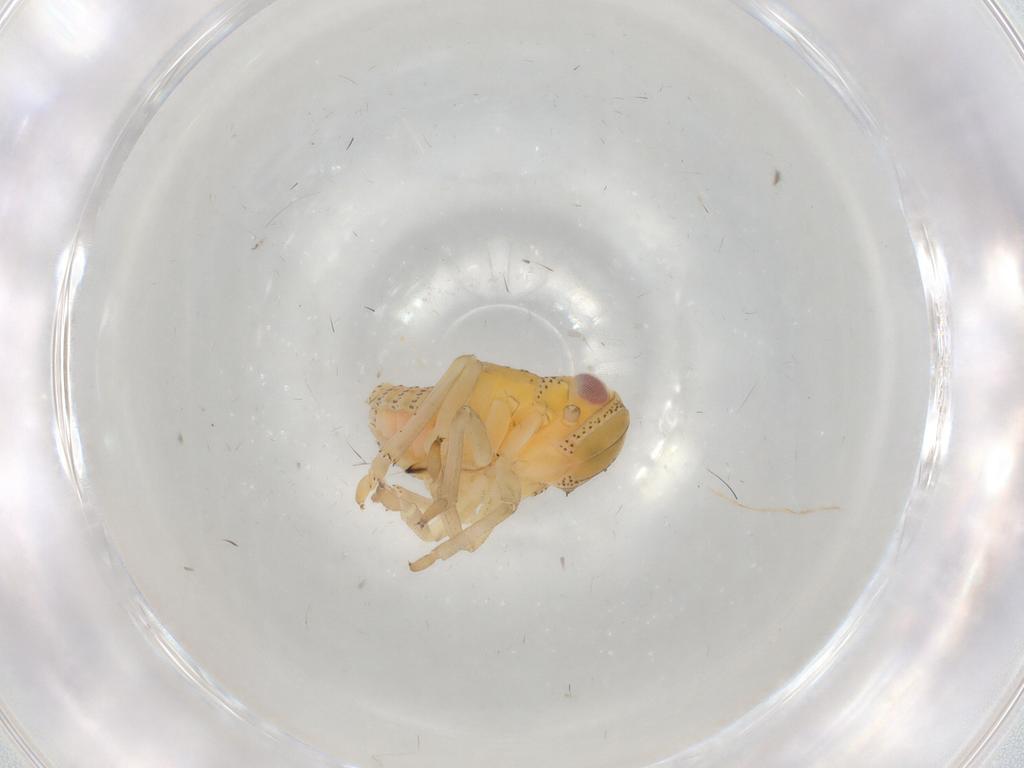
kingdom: Animalia
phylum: Arthropoda
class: Insecta
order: Hemiptera
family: Tropiduchidae
